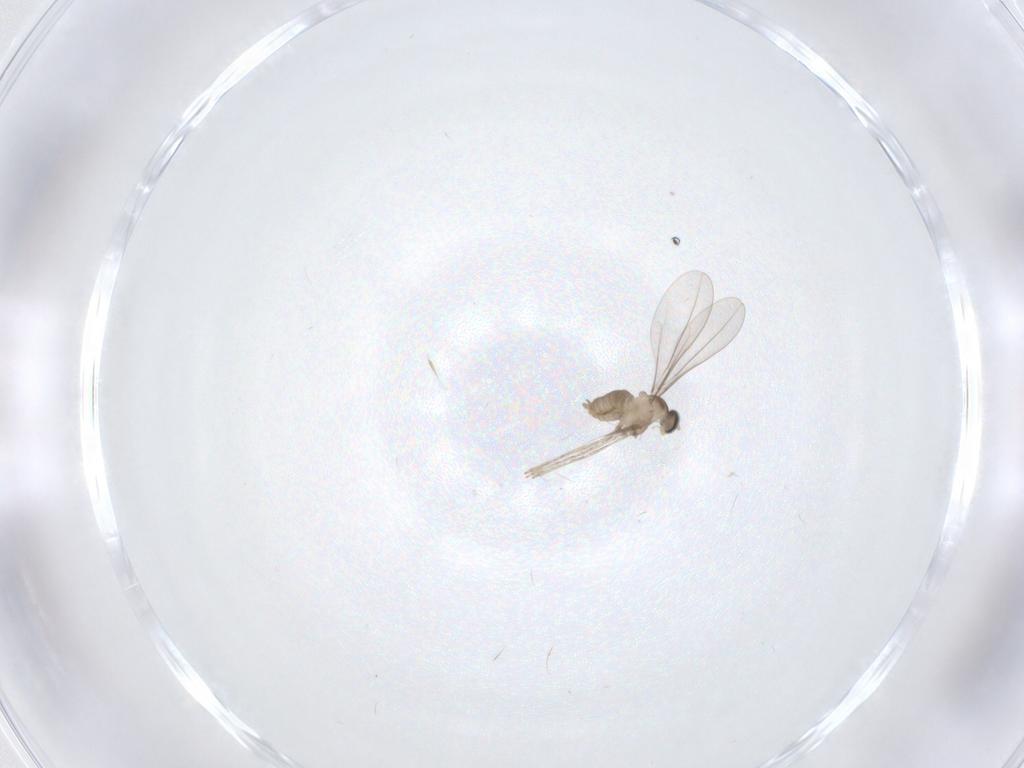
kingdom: Animalia
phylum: Arthropoda
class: Insecta
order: Diptera
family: Cecidomyiidae
